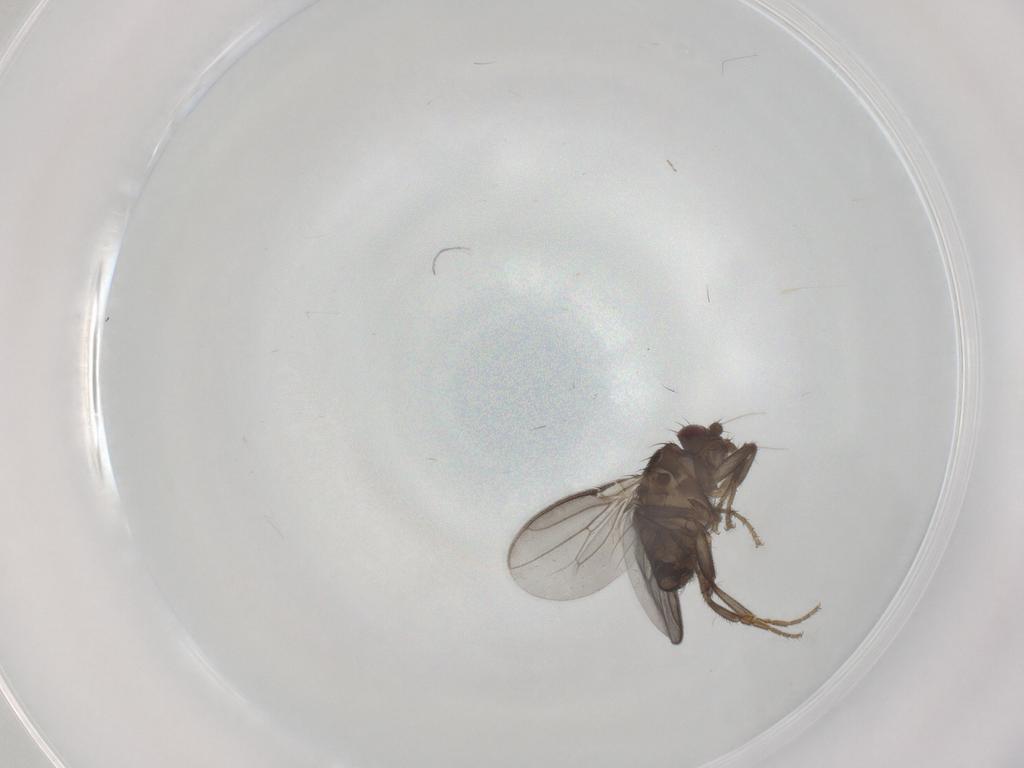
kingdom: Animalia
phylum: Arthropoda
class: Insecta
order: Diptera
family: Sphaeroceridae
